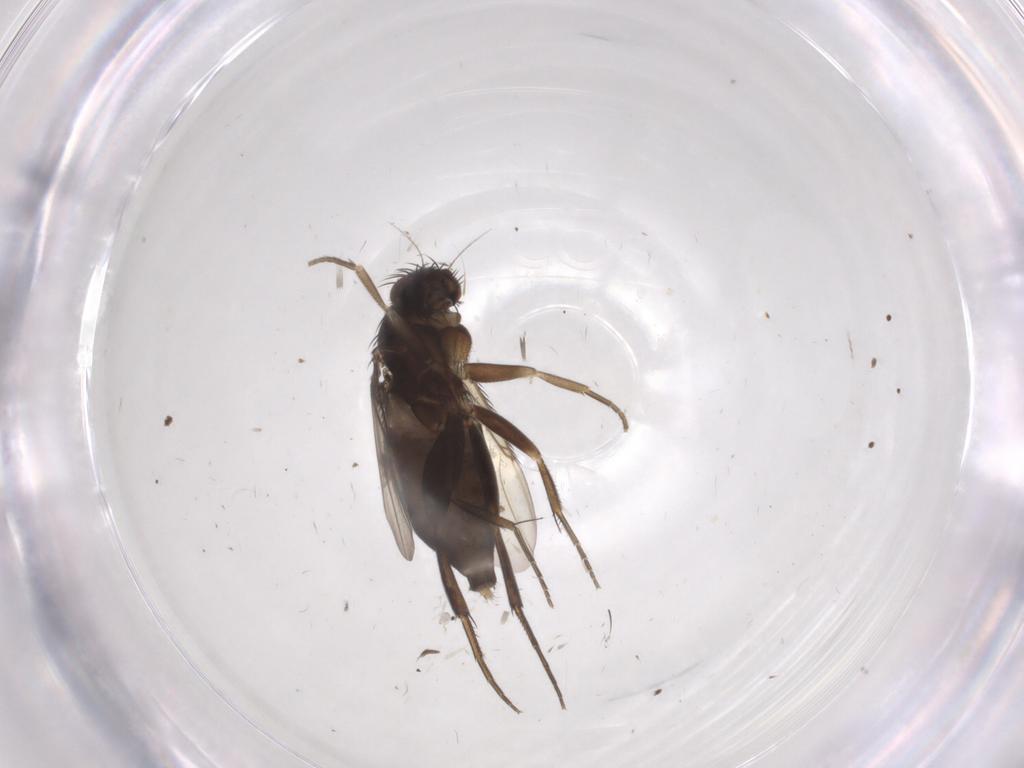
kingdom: Animalia
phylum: Arthropoda
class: Insecta
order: Diptera
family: Phoridae
